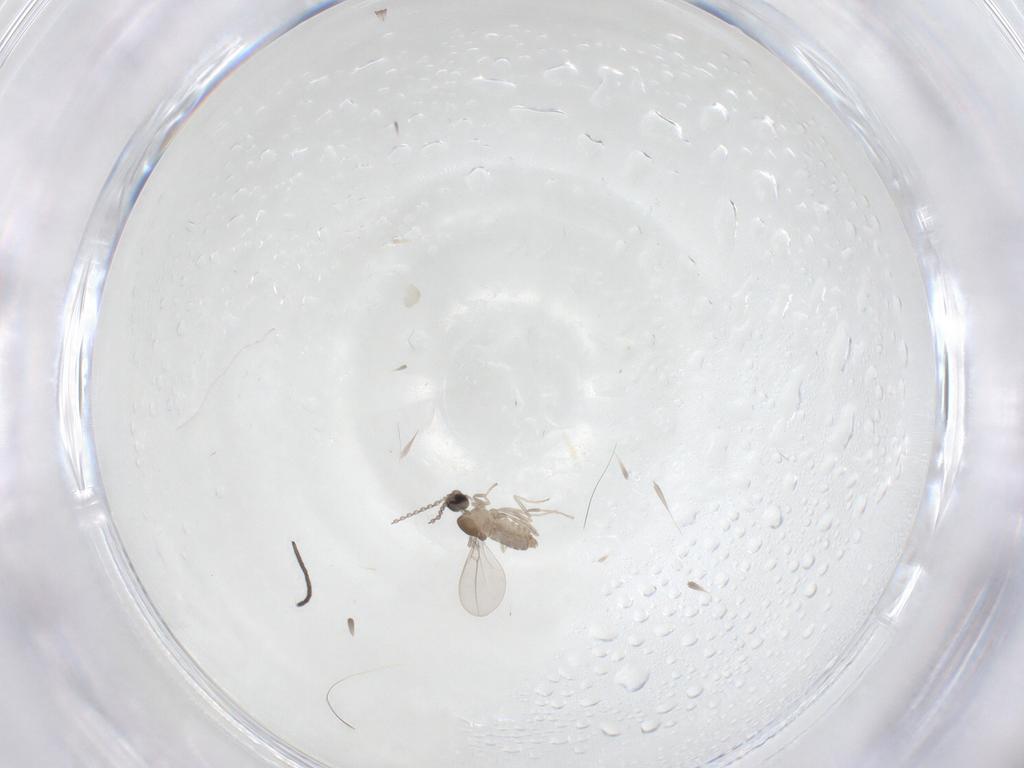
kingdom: Animalia
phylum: Arthropoda
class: Insecta
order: Diptera
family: Cecidomyiidae
